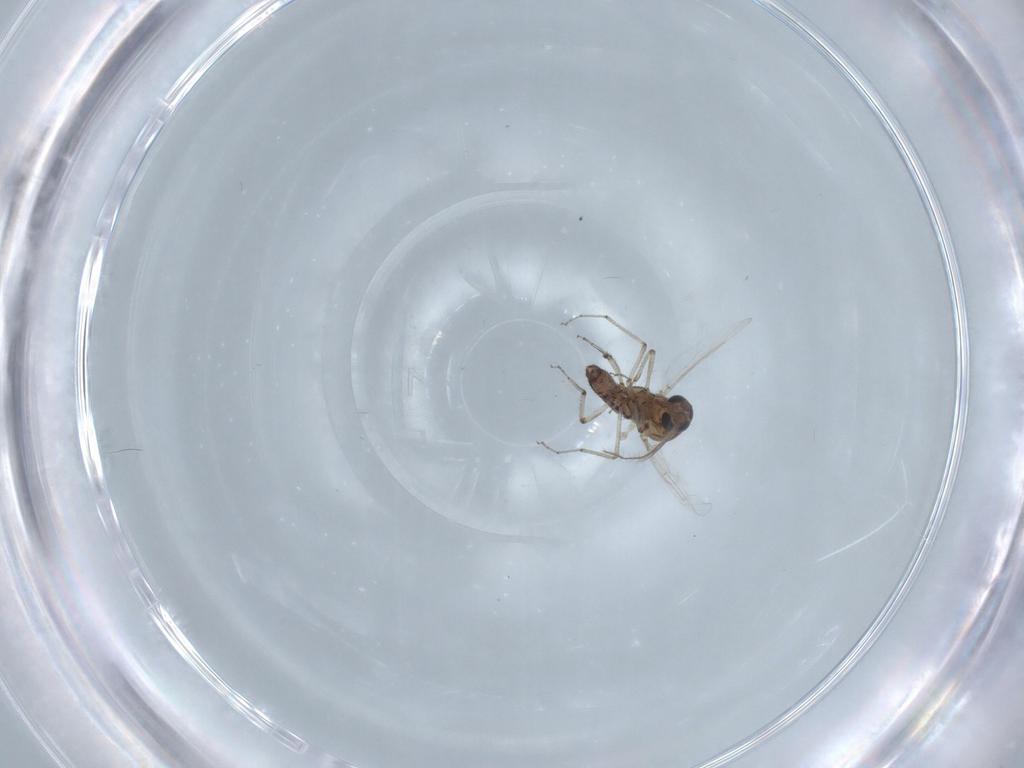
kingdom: Animalia
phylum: Arthropoda
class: Insecta
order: Diptera
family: Ceratopogonidae
